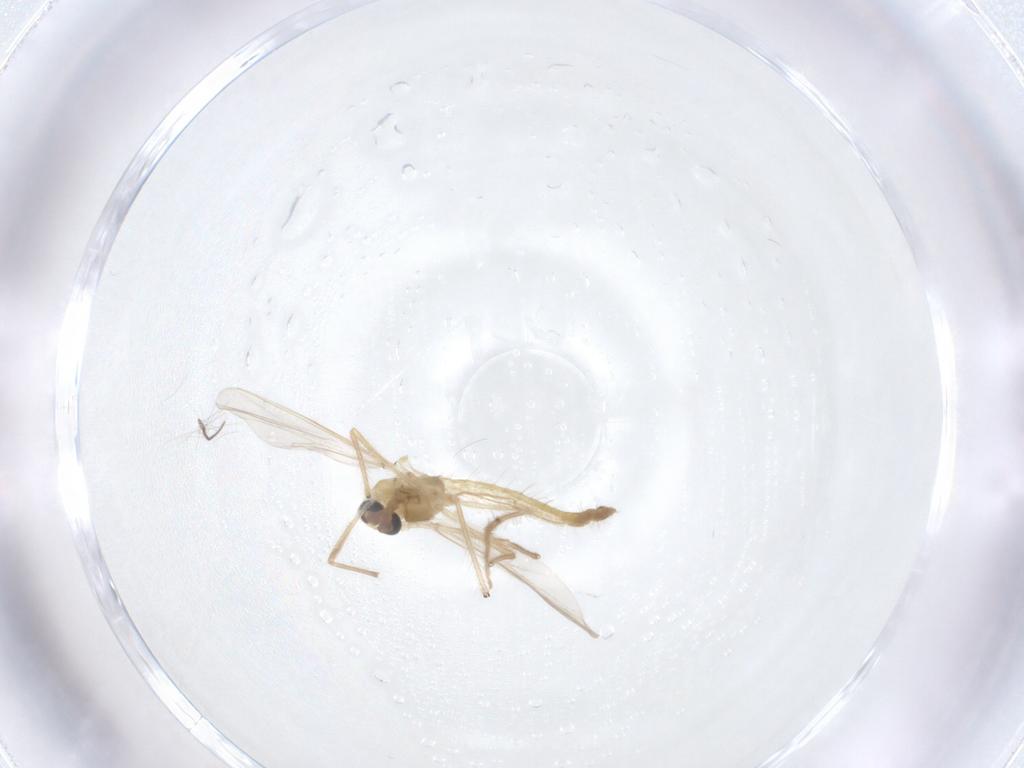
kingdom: Animalia
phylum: Arthropoda
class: Insecta
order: Diptera
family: Chironomidae
